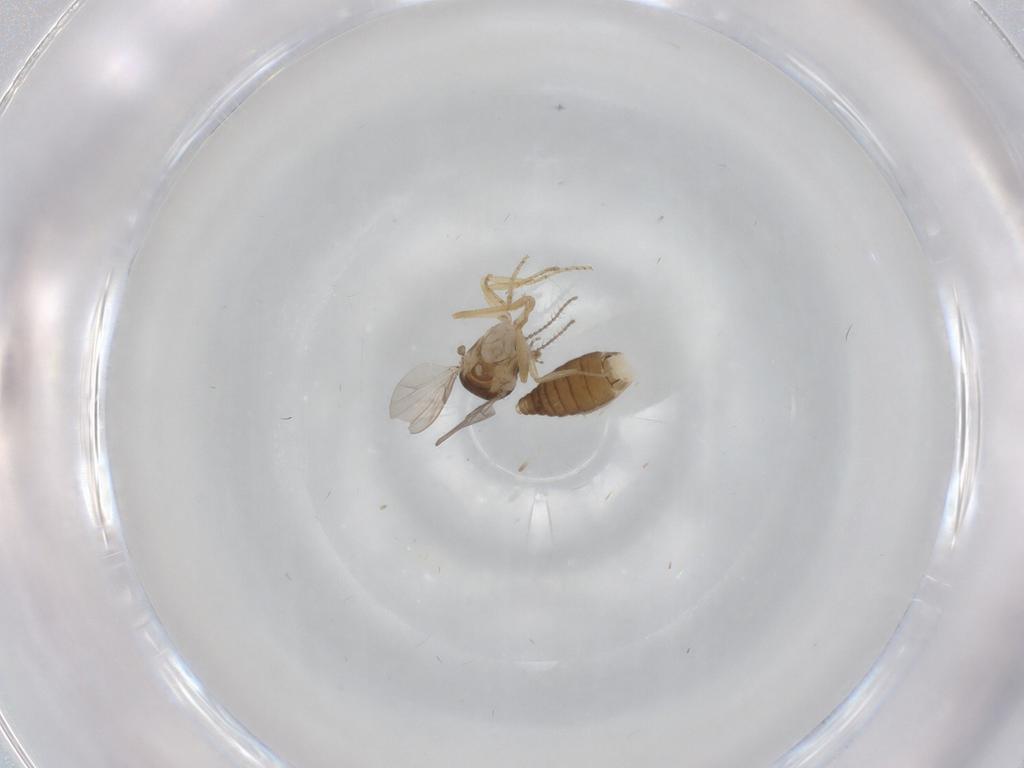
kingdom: Animalia
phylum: Arthropoda
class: Insecta
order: Diptera
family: Ceratopogonidae
